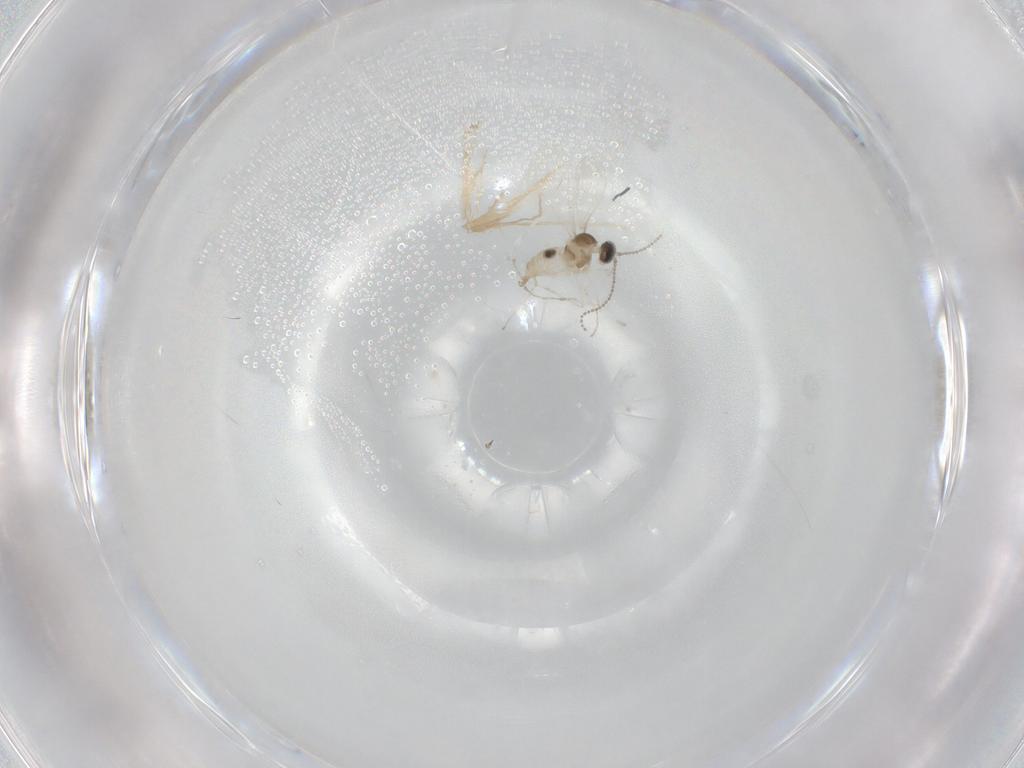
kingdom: Animalia
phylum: Arthropoda
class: Insecta
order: Diptera
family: Cecidomyiidae
